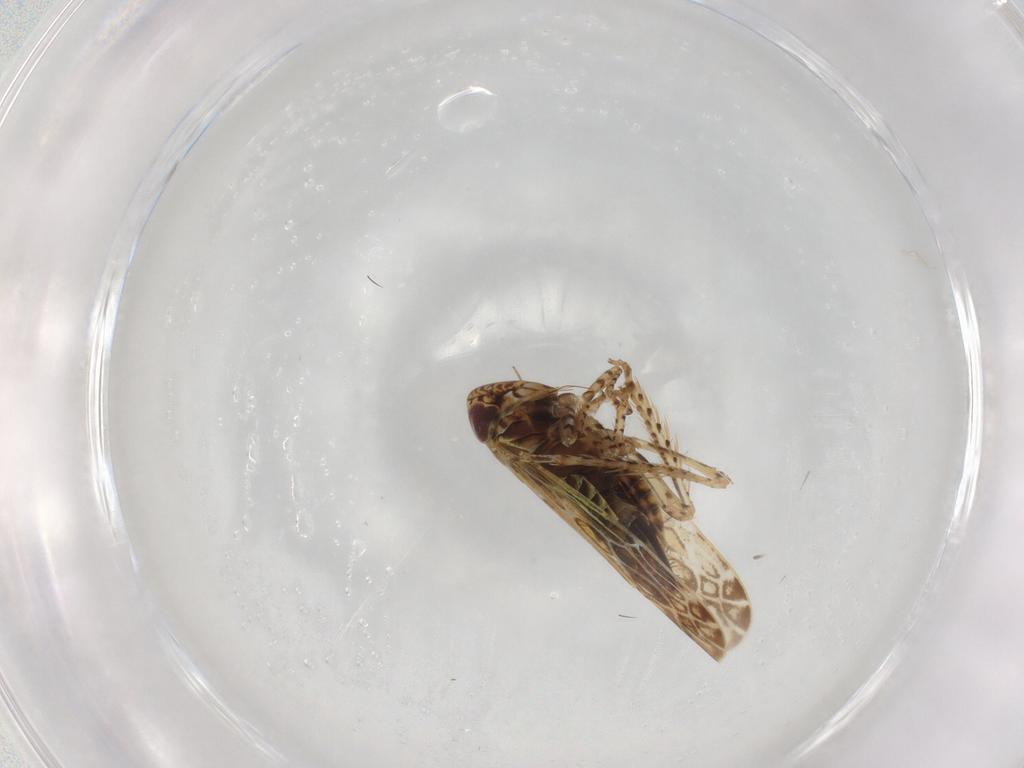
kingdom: Animalia
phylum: Arthropoda
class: Insecta
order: Hemiptera
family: Cicadellidae
